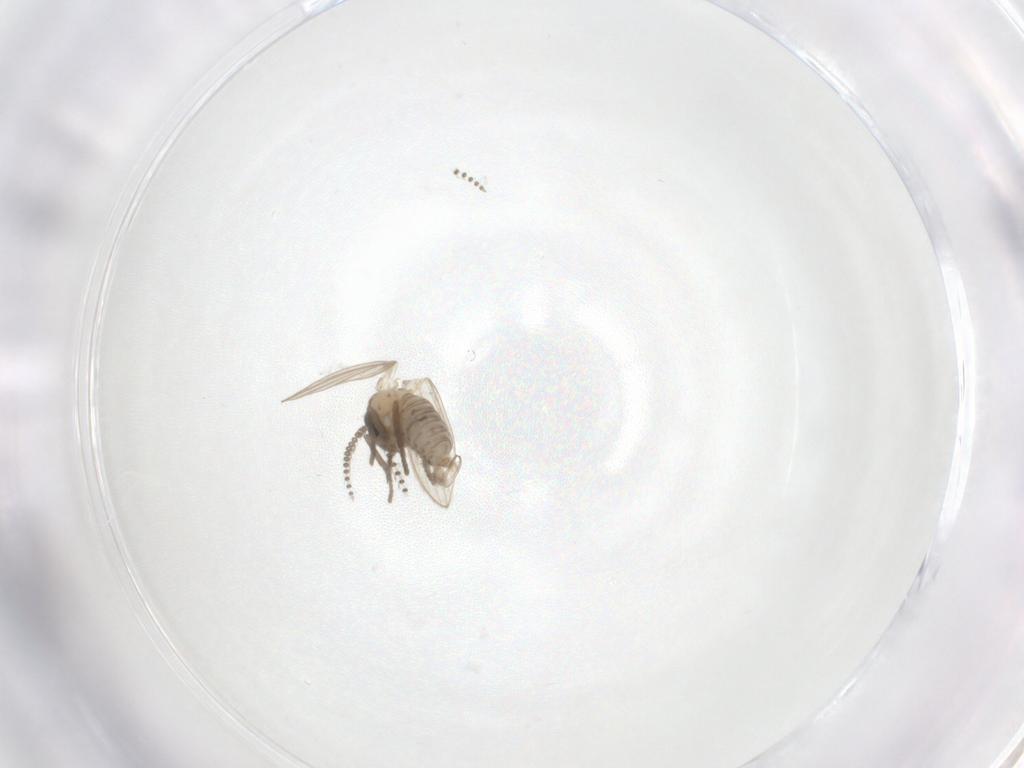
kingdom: Animalia
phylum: Arthropoda
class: Insecta
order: Diptera
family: Psychodidae
